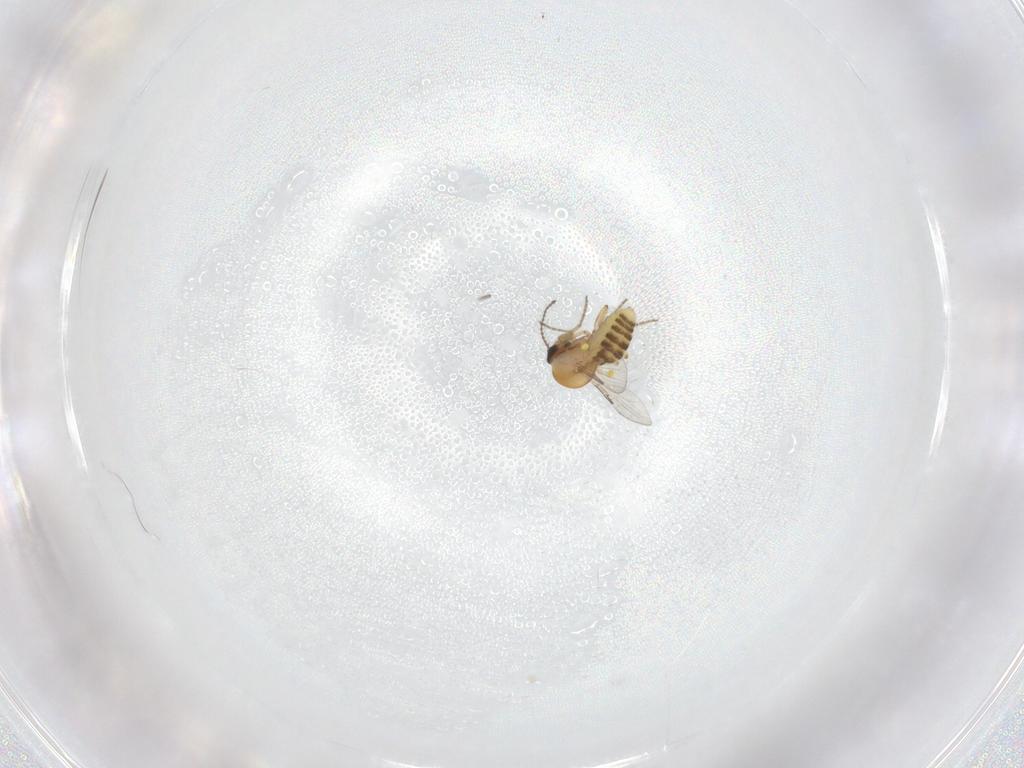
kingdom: Animalia
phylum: Arthropoda
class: Insecta
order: Diptera
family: Ceratopogonidae
